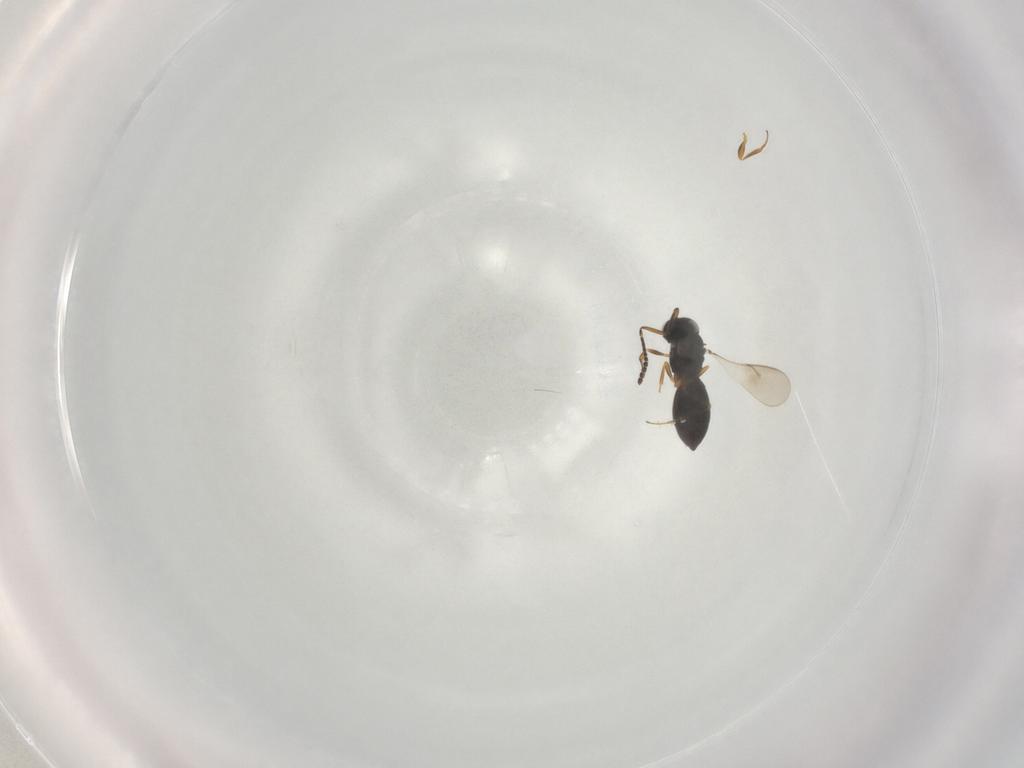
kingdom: Animalia
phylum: Arthropoda
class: Insecta
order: Hymenoptera
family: Scelionidae
